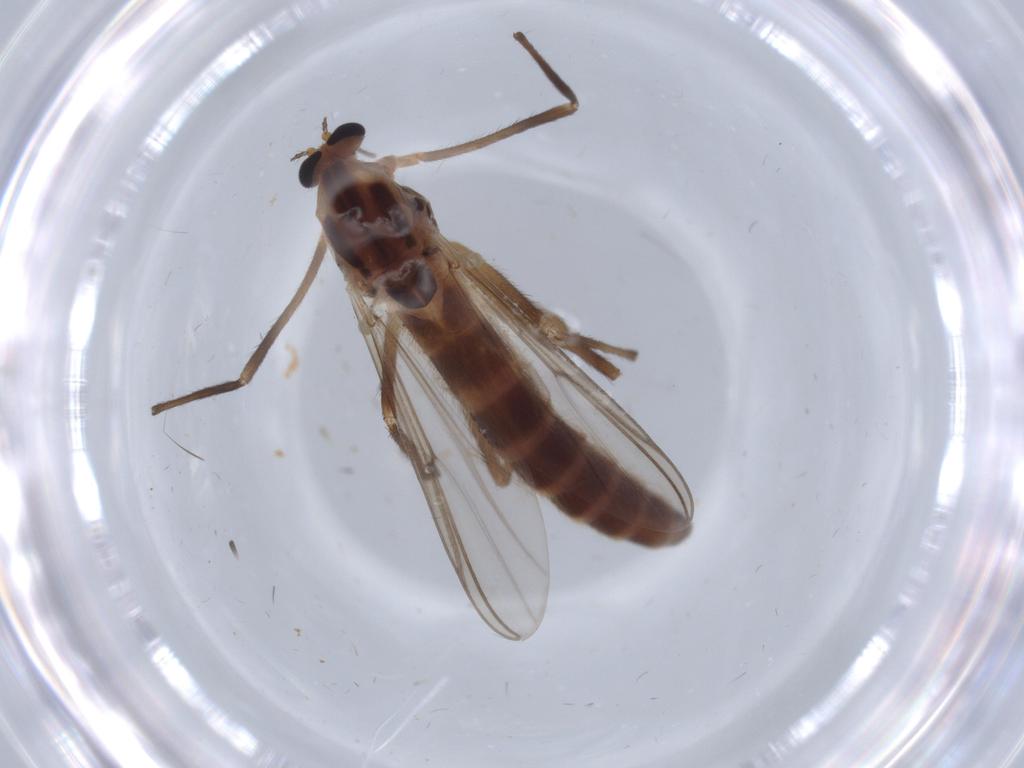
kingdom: Animalia
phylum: Arthropoda
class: Insecta
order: Diptera
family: Chironomidae
